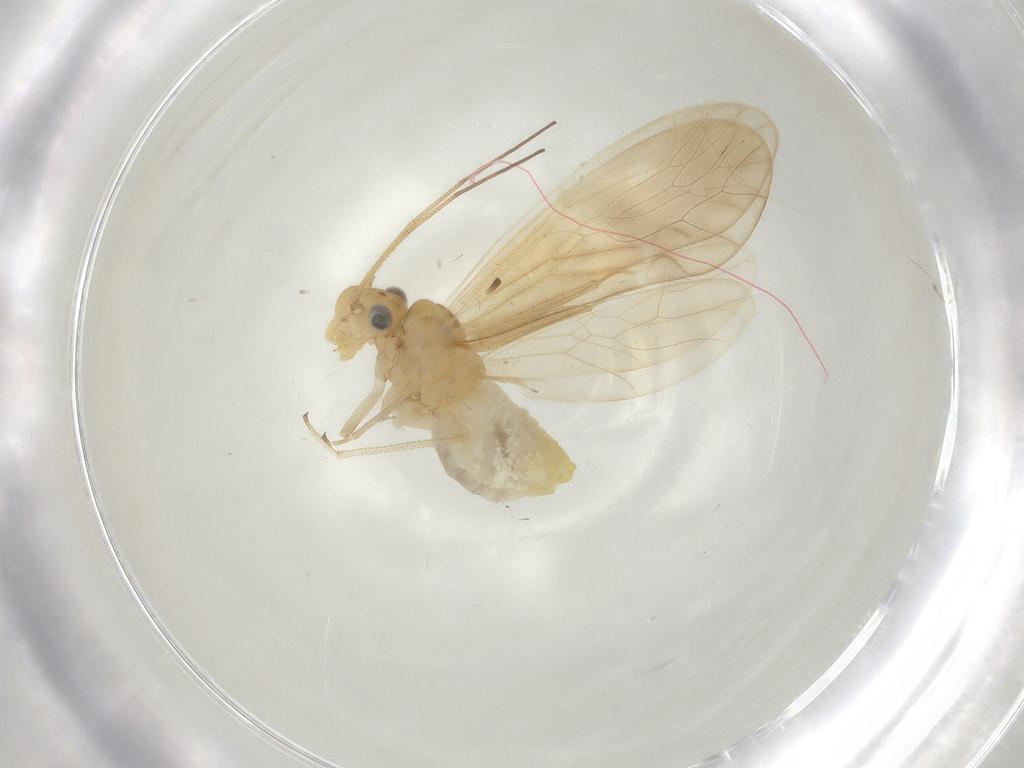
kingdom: Animalia
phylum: Arthropoda
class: Insecta
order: Psocodea
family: Caeciliusidae
